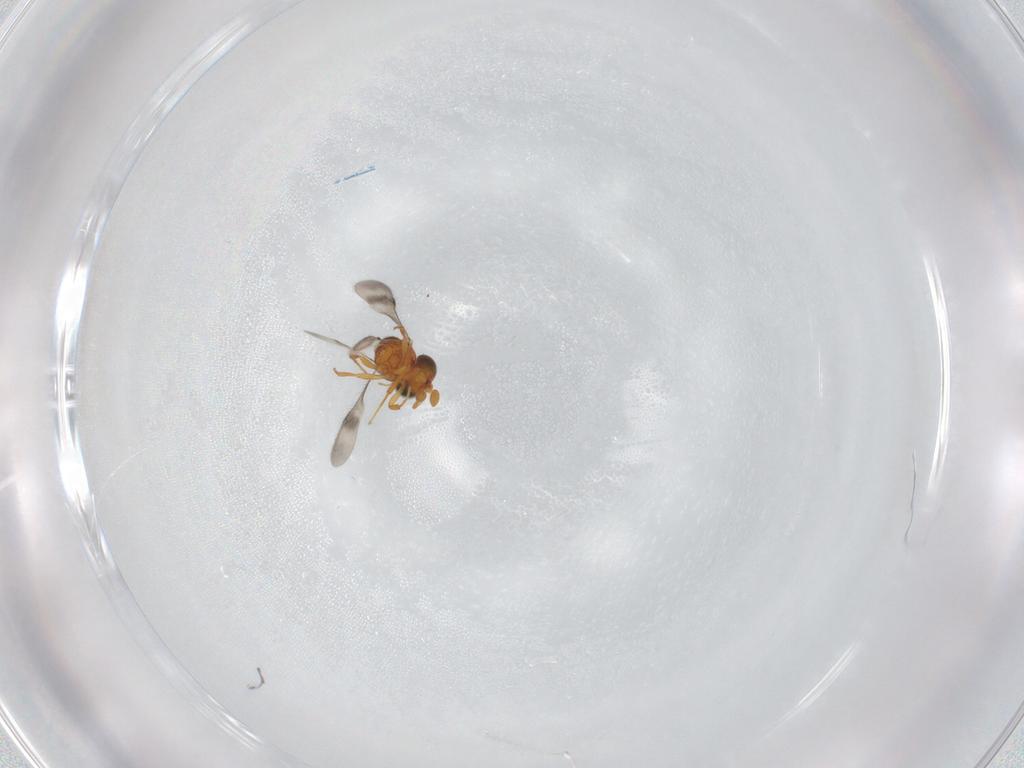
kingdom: Animalia
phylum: Arthropoda
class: Insecta
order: Hymenoptera
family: Scelionidae
